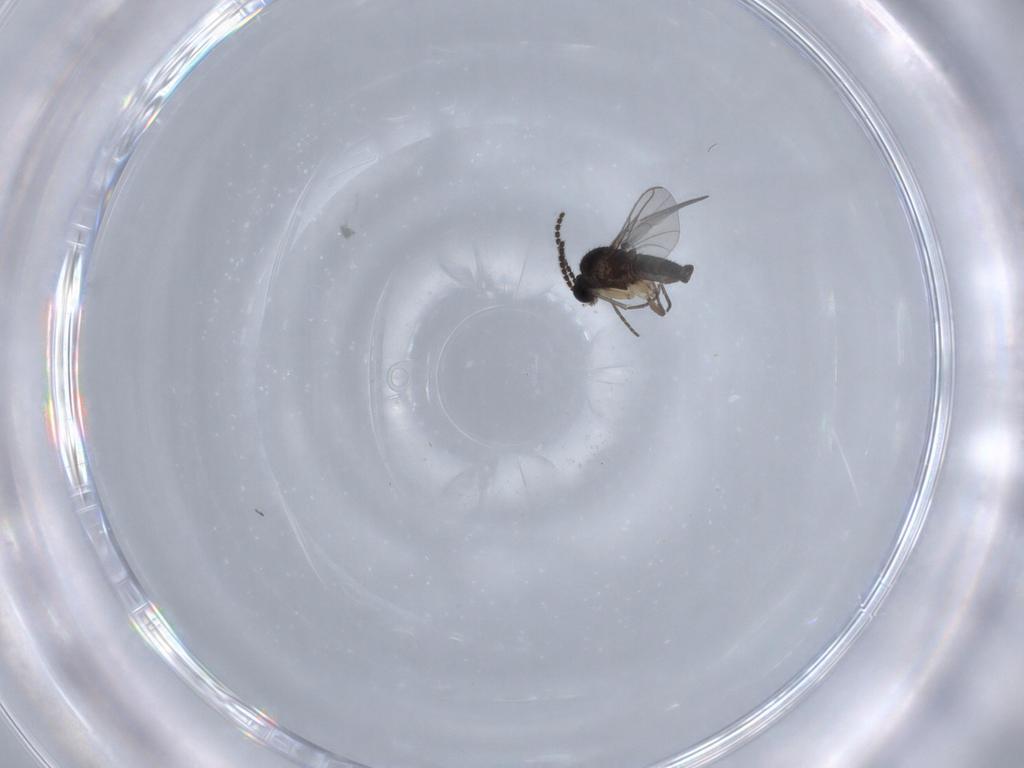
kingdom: Animalia
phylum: Arthropoda
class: Insecta
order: Diptera
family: Sciaridae
